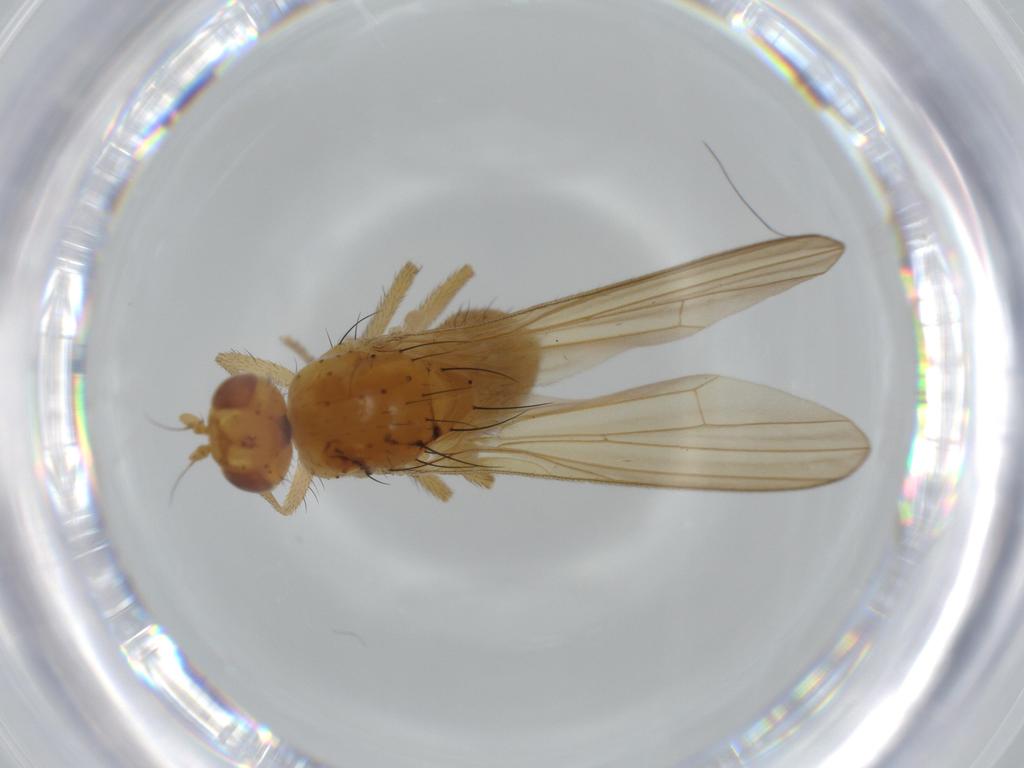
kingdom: Animalia
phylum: Arthropoda
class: Insecta
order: Diptera
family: Lauxaniidae
